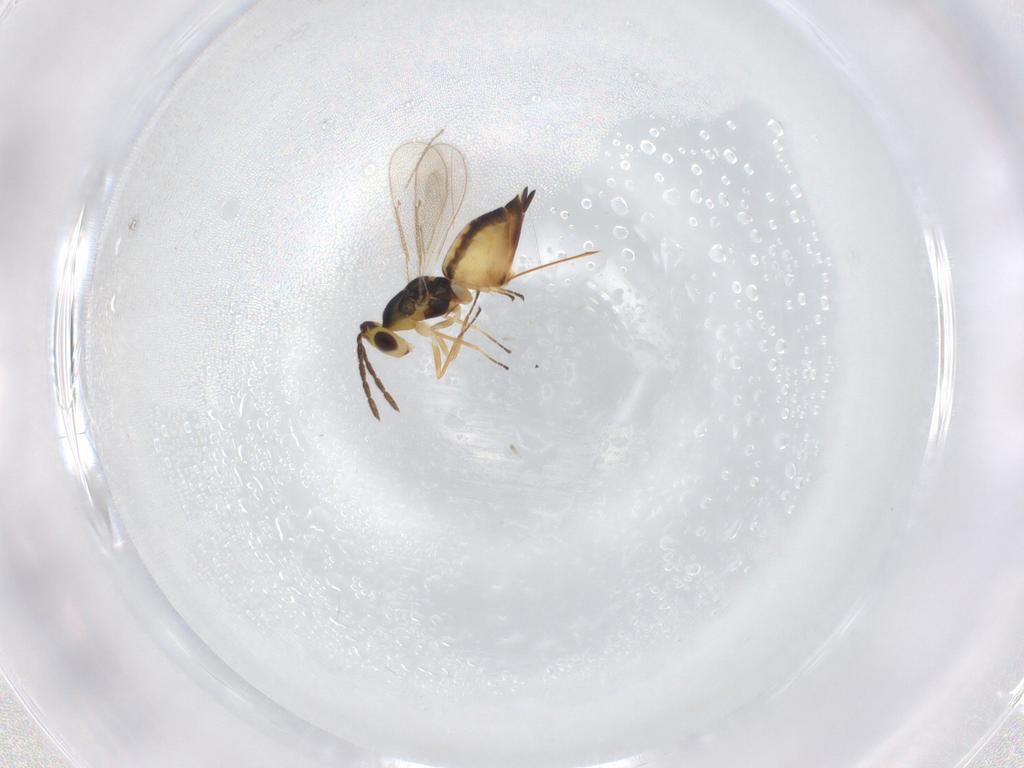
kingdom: Animalia
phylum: Arthropoda
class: Insecta
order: Hymenoptera
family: Eulophidae
